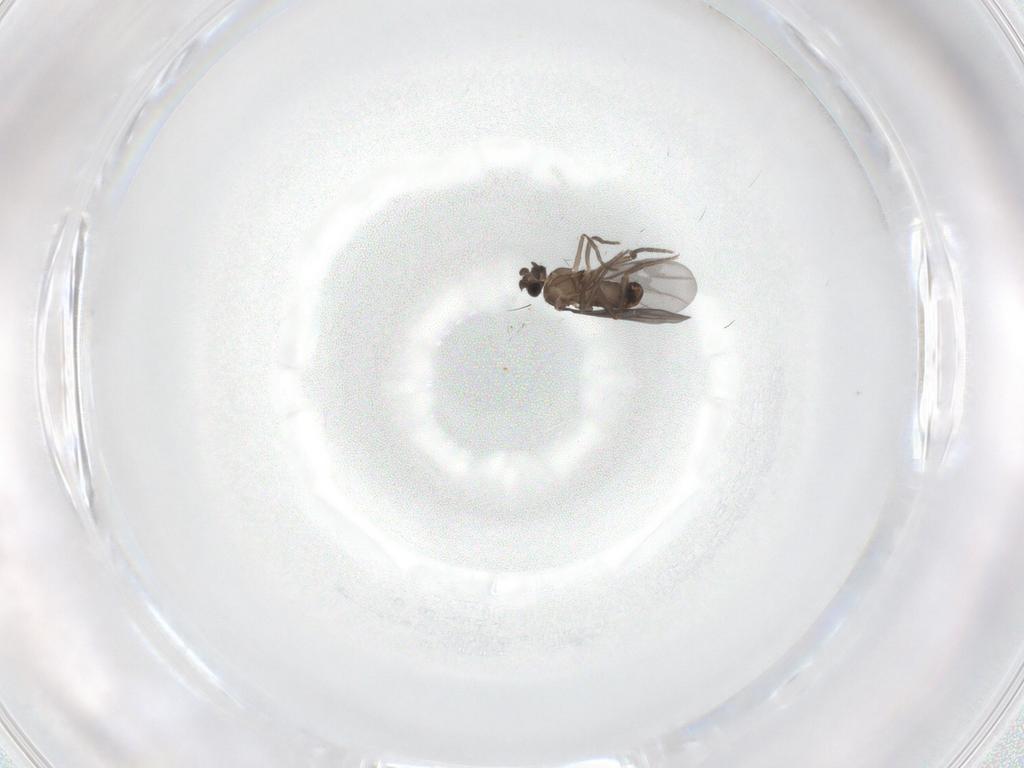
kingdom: Animalia
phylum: Arthropoda
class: Insecta
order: Diptera
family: Phoridae
